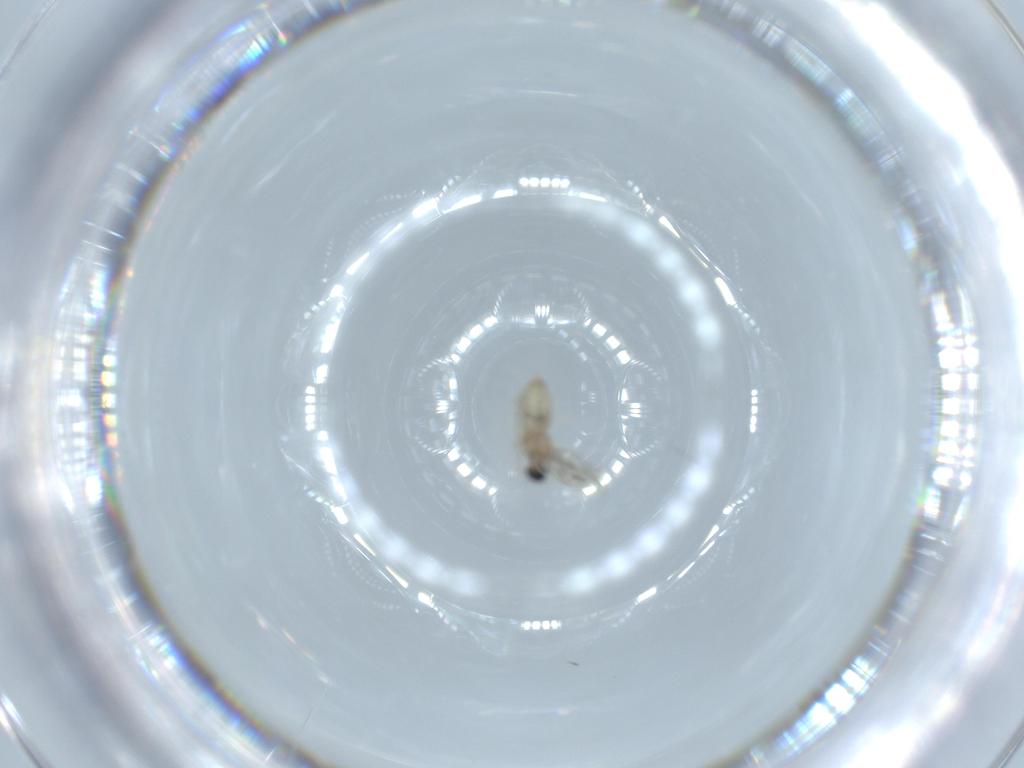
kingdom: Animalia
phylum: Arthropoda
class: Insecta
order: Diptera
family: Cecidomyiidae
